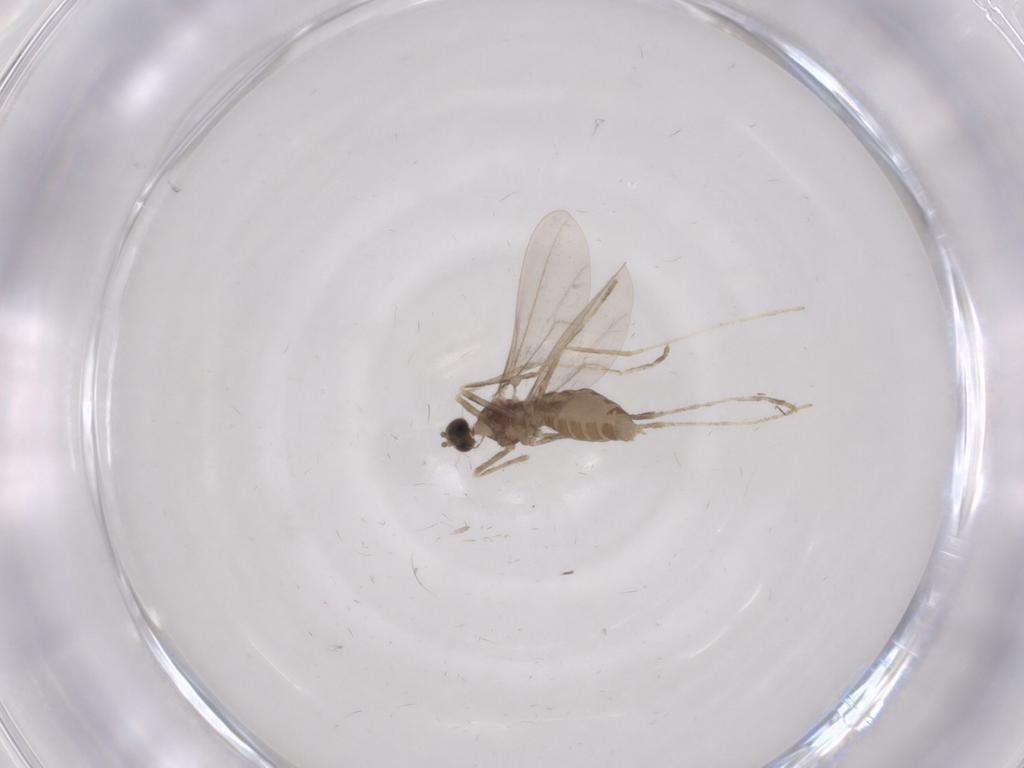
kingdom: Animalia
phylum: Arthropoda
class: Insecta
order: Diptera
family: Cecidomyiidae
